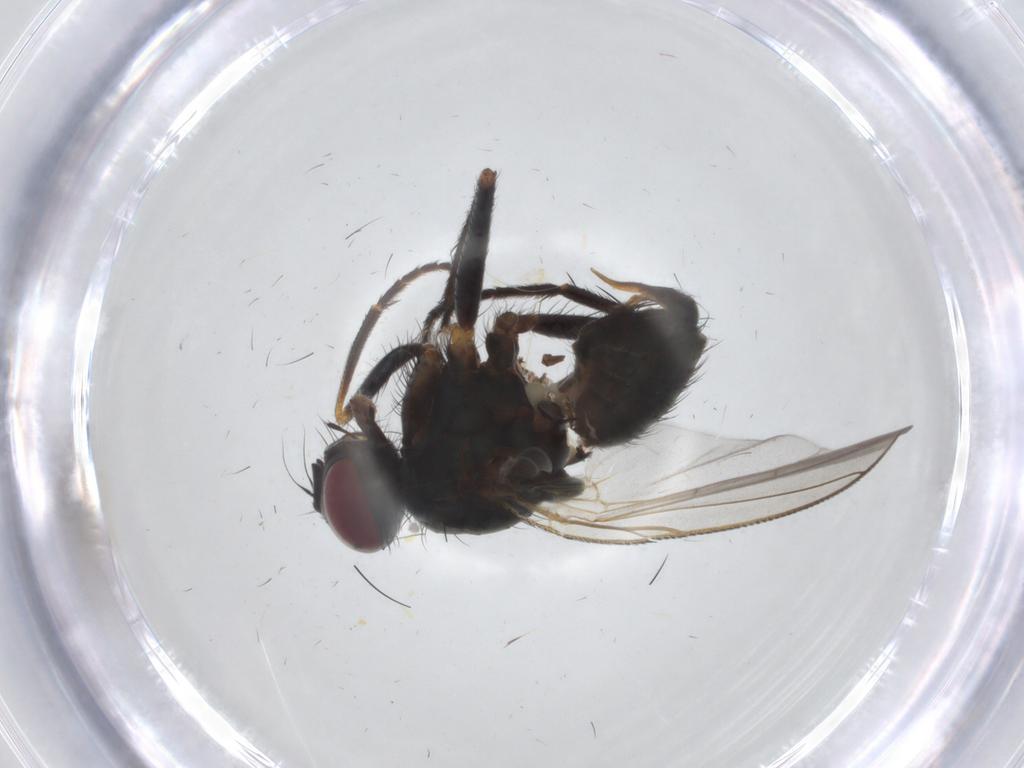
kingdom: Animalia
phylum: Arthropoda
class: Insecta
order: Diptera
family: Muscidae
